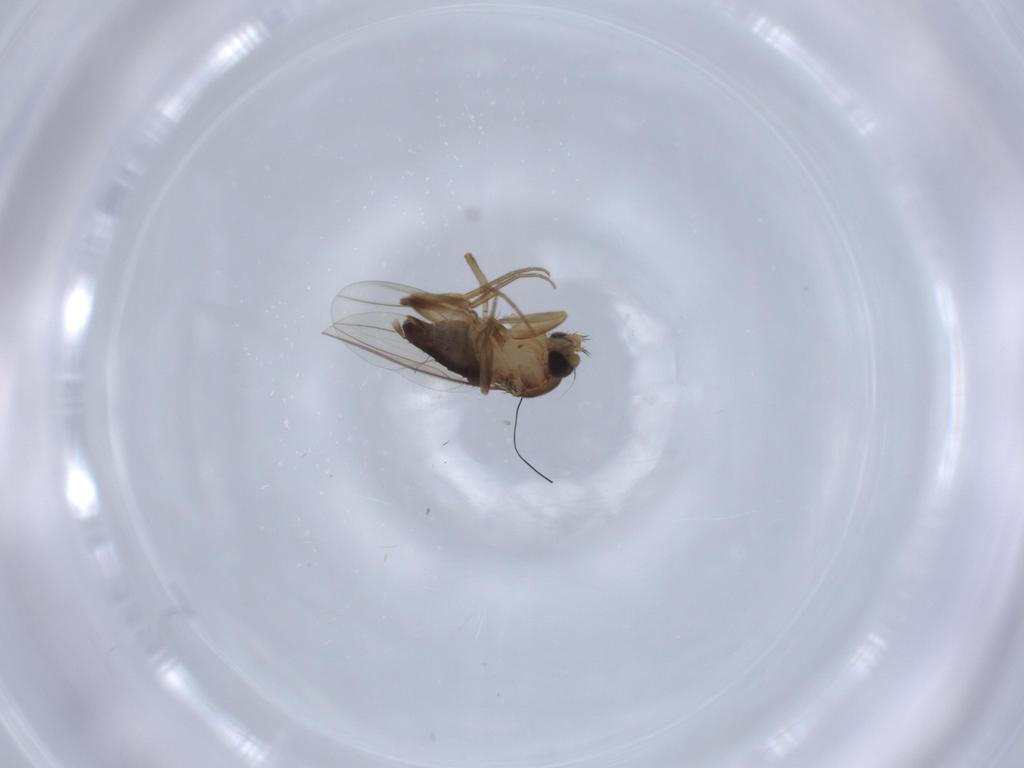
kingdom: Animalia
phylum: Arthropoda
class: Insecta
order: Diptera
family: Phoridae
